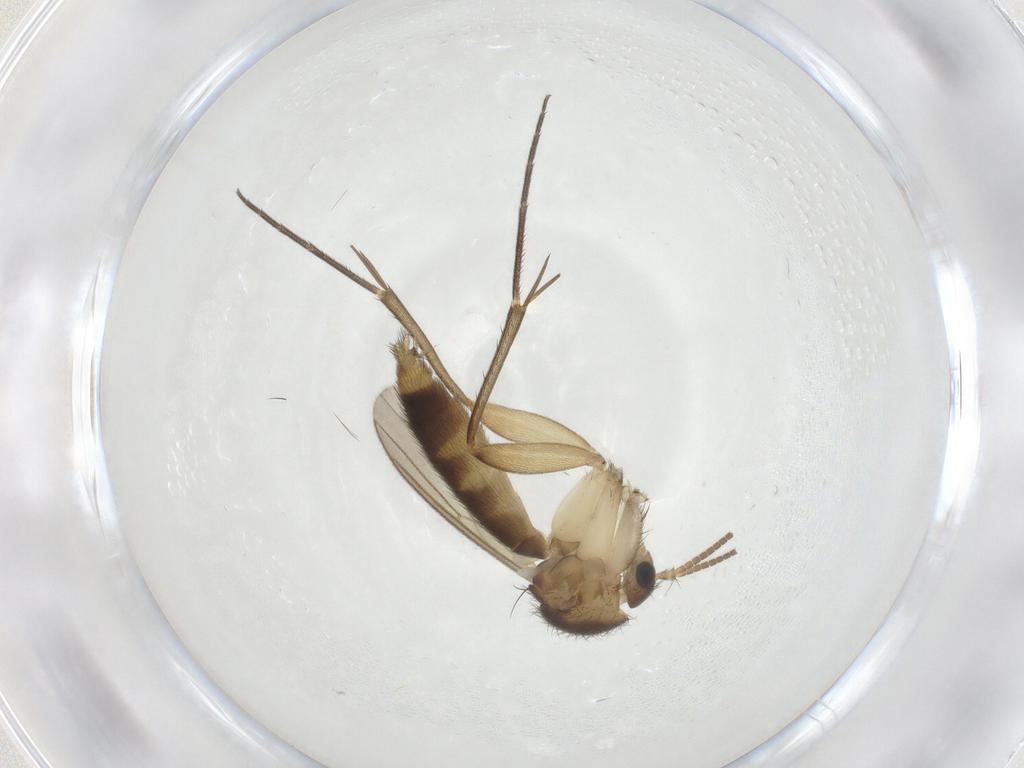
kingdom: Animalia
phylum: Arthropoda
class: Insecta
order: Diptera
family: Mycetophilidae
